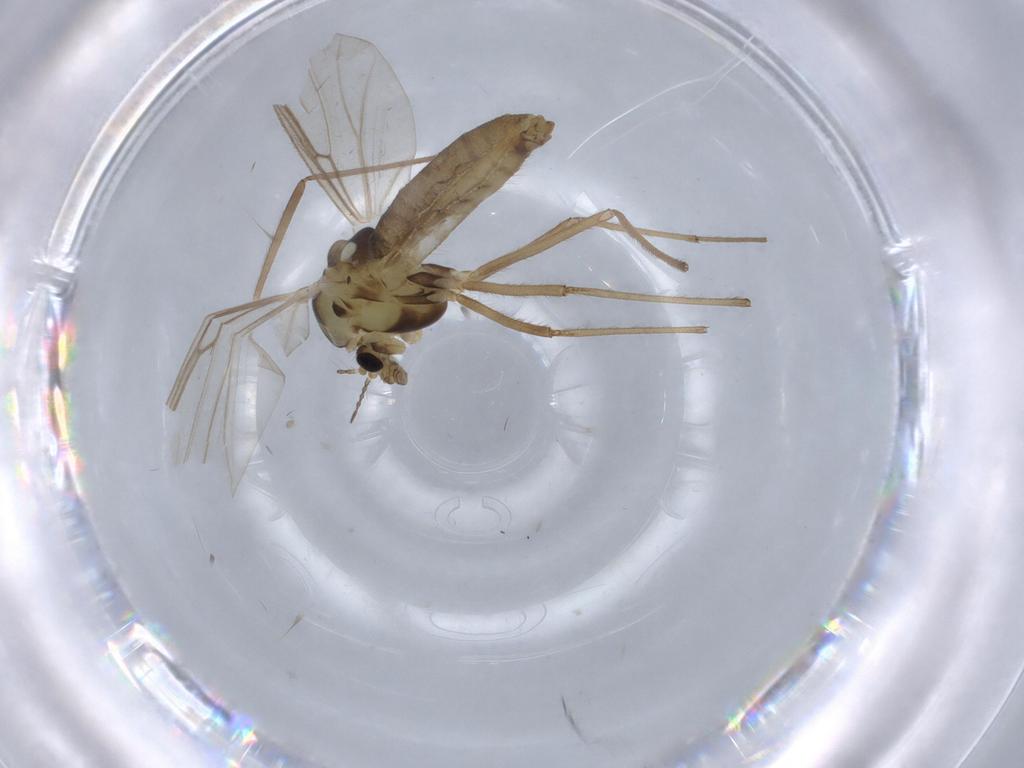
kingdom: Animalia
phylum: Arthropoda
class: Insecta
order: Diptera
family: Chironomidae
